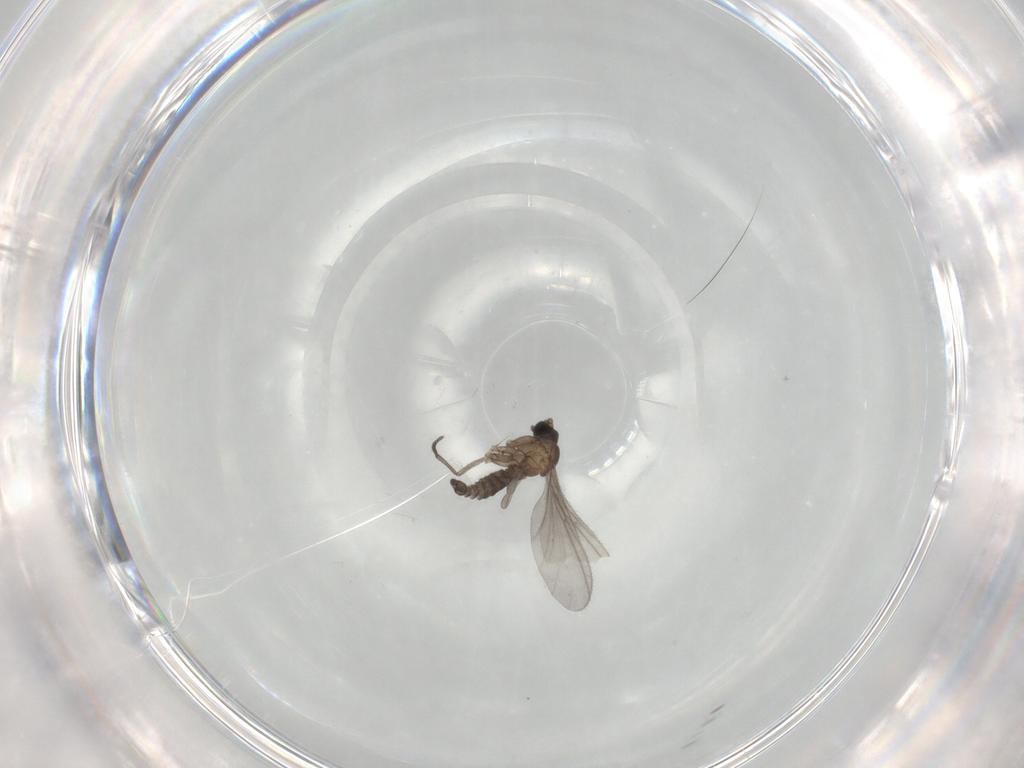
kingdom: Animalia
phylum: Arthropoda
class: Insecta
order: Diptera
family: Sciaridae
